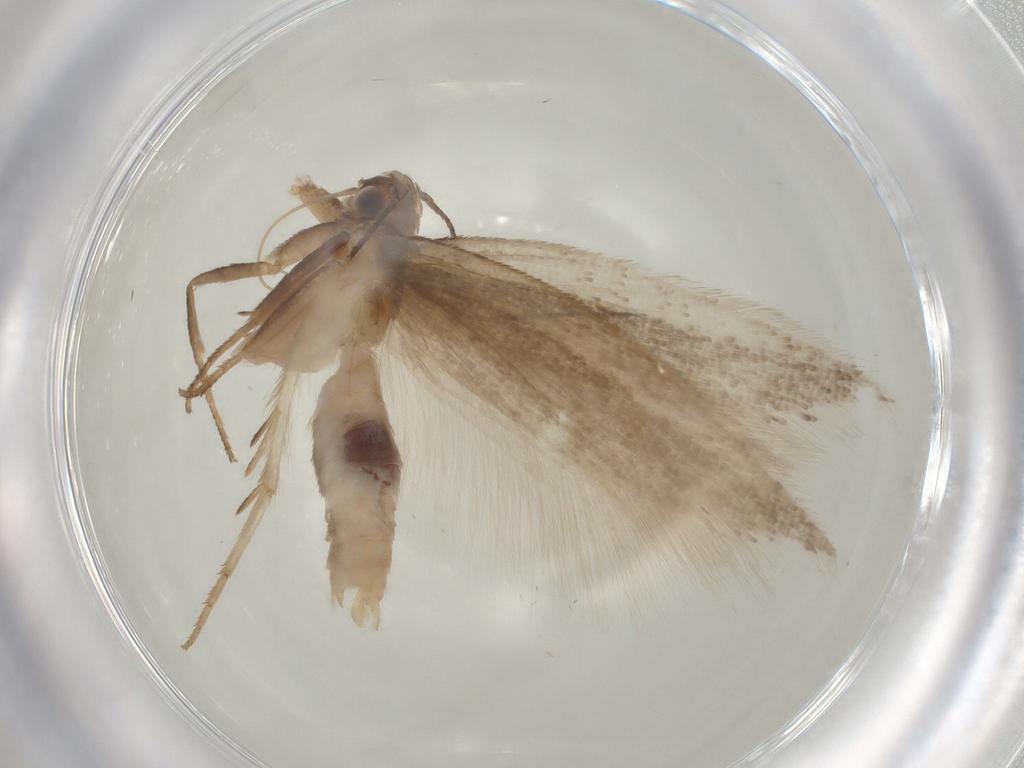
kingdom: Animalia
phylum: Arthropoda
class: Insecta
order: Lepidoptera
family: Gelechiidae
